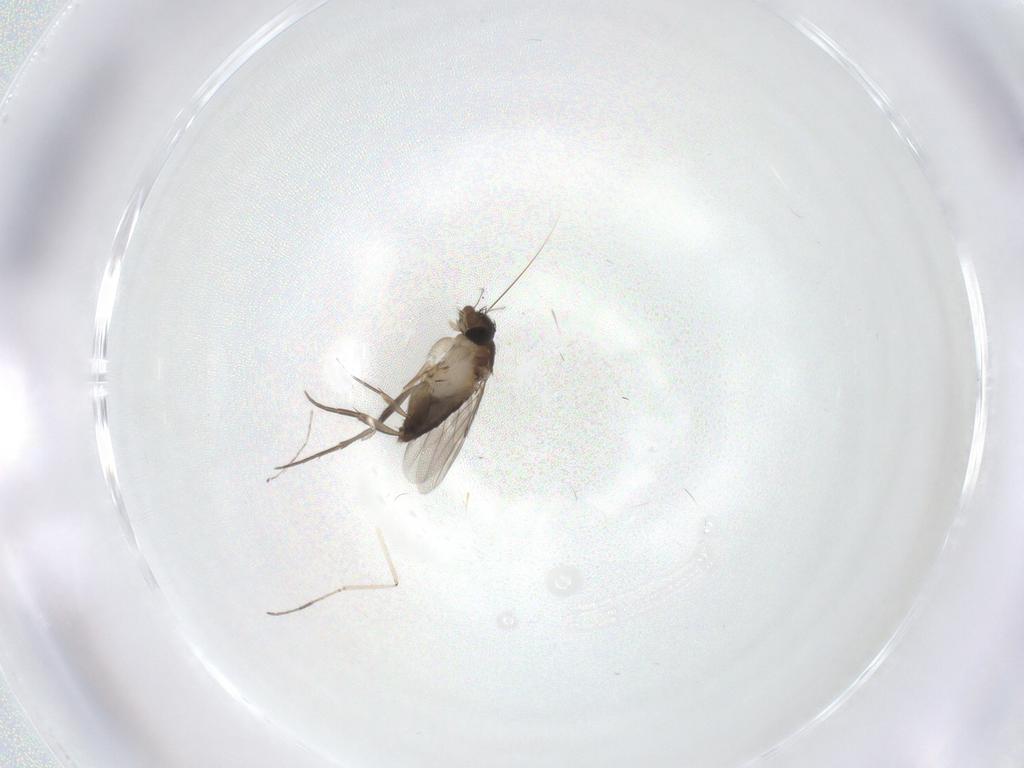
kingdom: Animalia
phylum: Arthropoda
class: Insecta
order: Diptera
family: Phoridae
